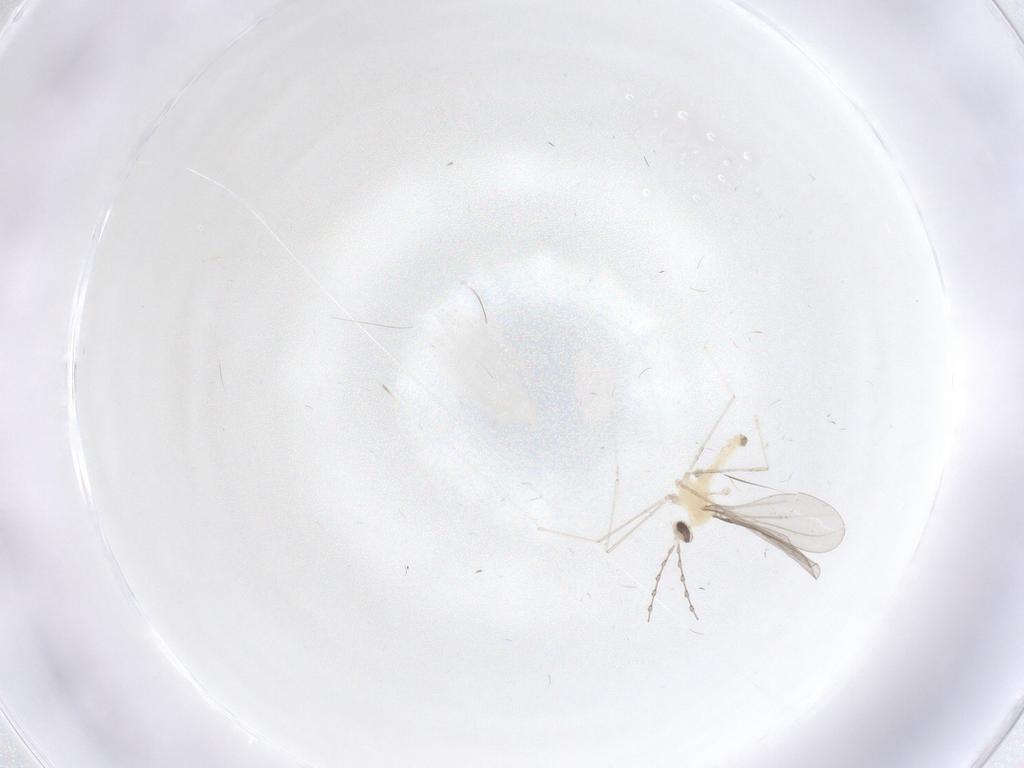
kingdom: Animalia
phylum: Arthropoda
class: Insecta
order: Diptera
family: Cecidomyiidae
